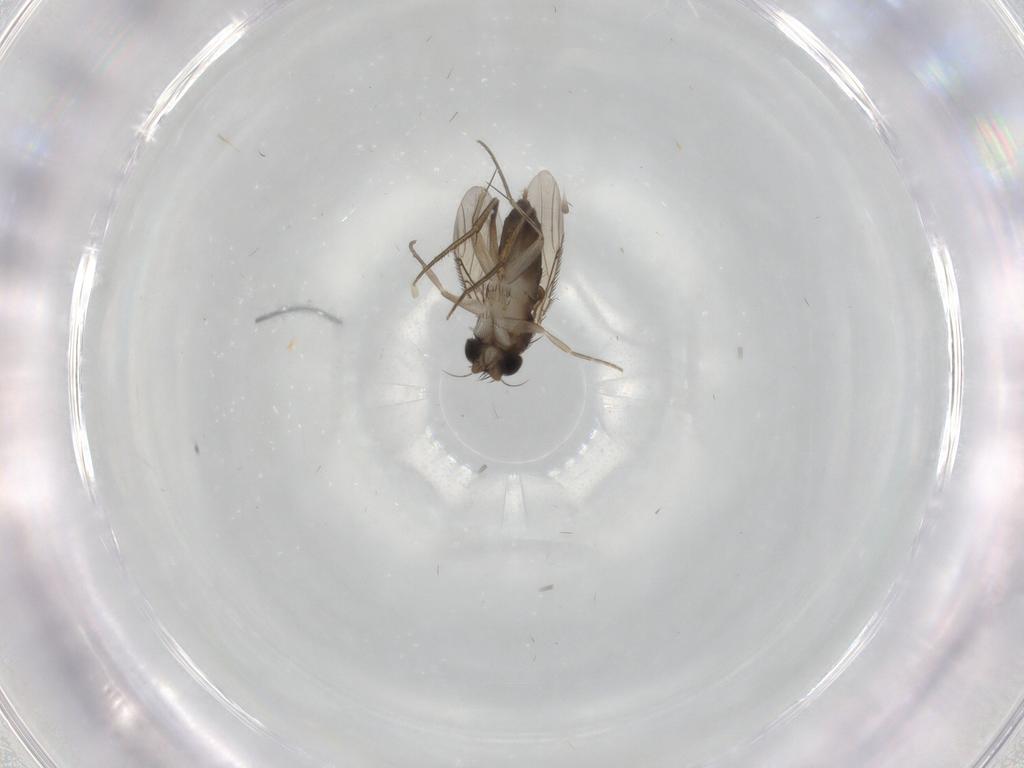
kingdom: Animalia
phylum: Arthropoda
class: Insecta
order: Diptera
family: Phoridae
